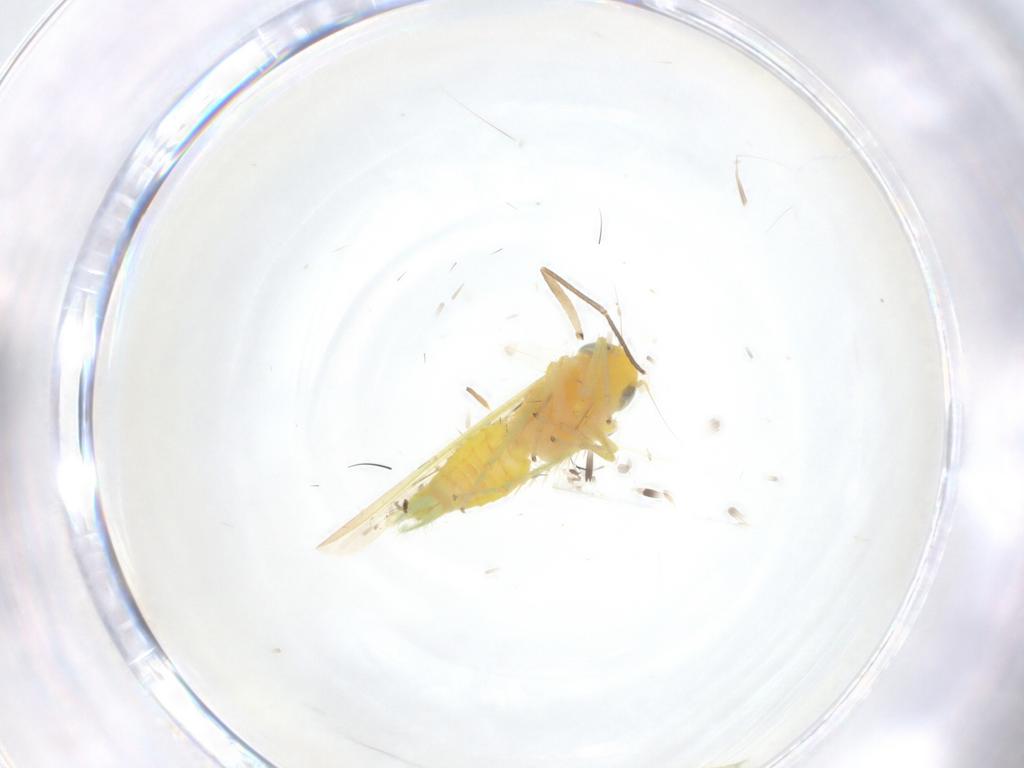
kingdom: Animalia
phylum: Arthropoda
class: Insecta
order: Hemiptera
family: Cicadellidae
